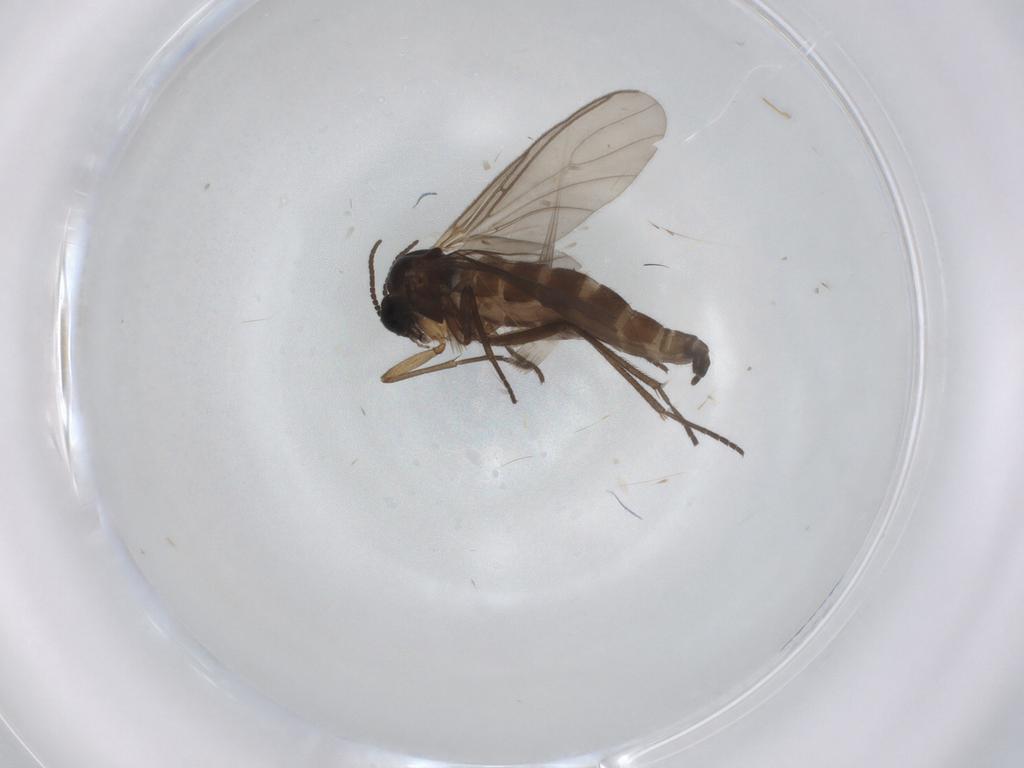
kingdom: Animalia
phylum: Arthropoda
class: Insecta
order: Diptera
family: Sciaridae
